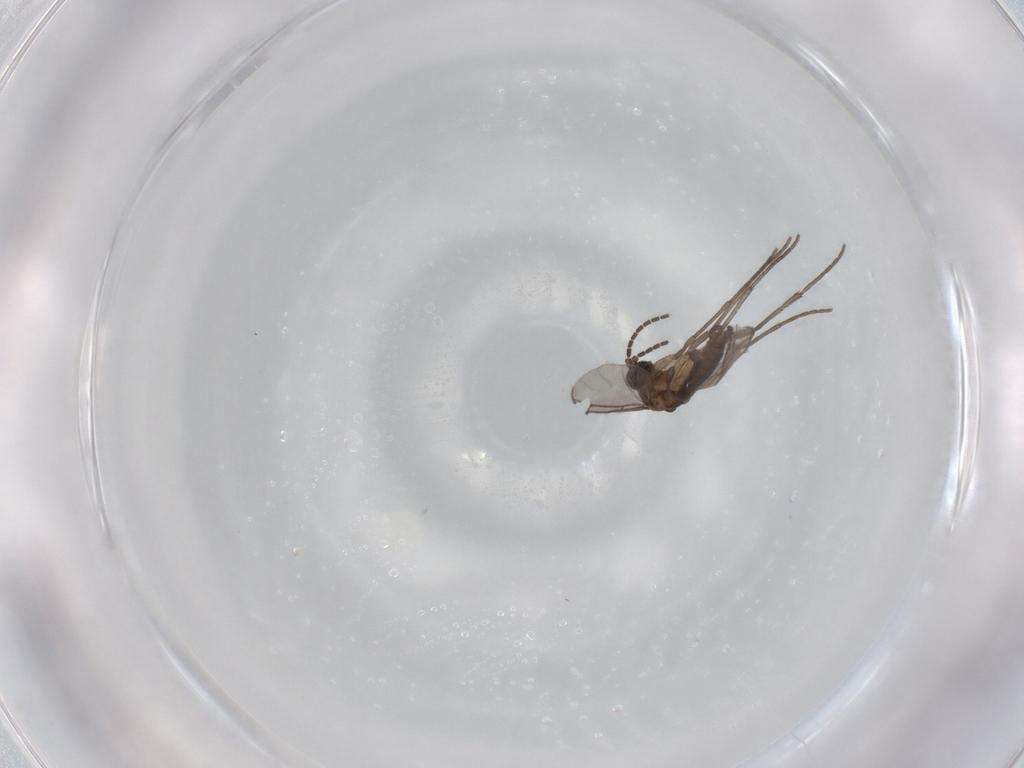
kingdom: Animalia
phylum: Arthropoda
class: Insecta
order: Diptera
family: Sciaridae
